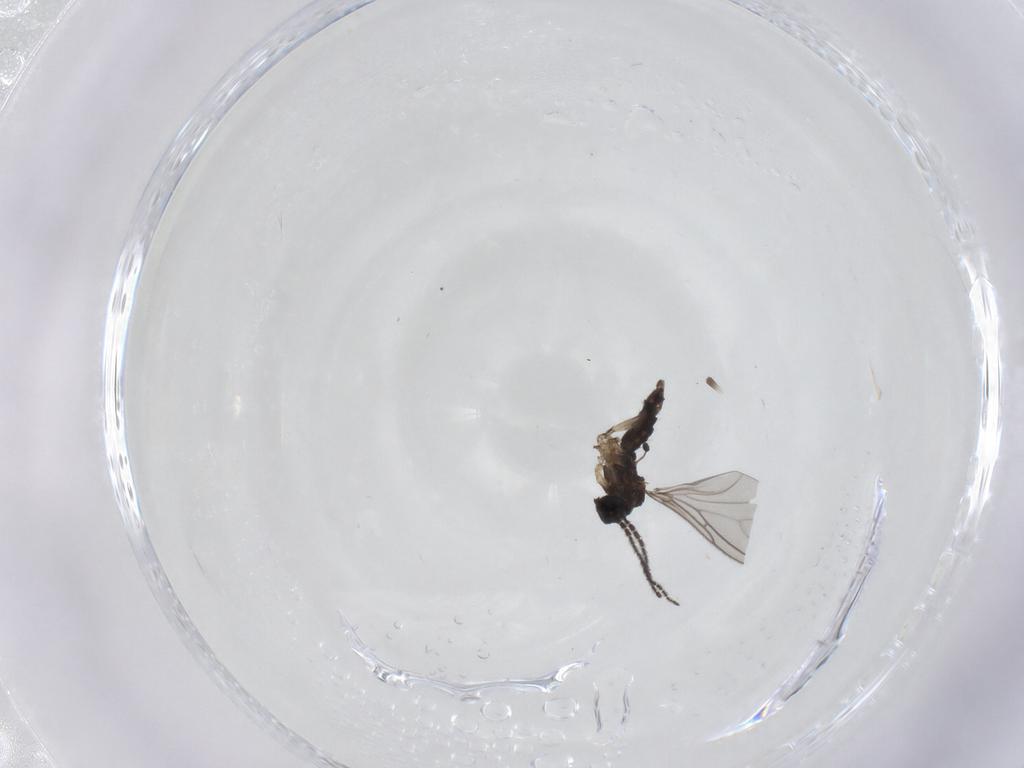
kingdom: Animalia
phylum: Arthropoda
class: Insecta
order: Diptera
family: Sciaridae
